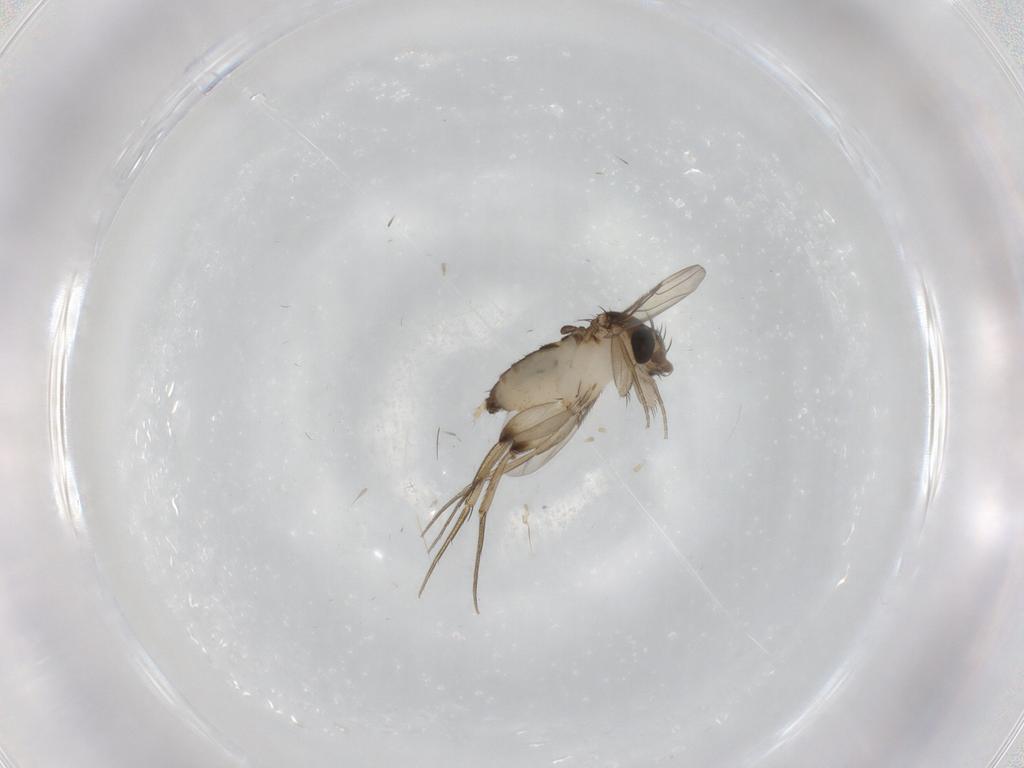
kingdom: Animalia
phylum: Arthropoda
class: Insecta
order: Diptera
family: Phoridae
